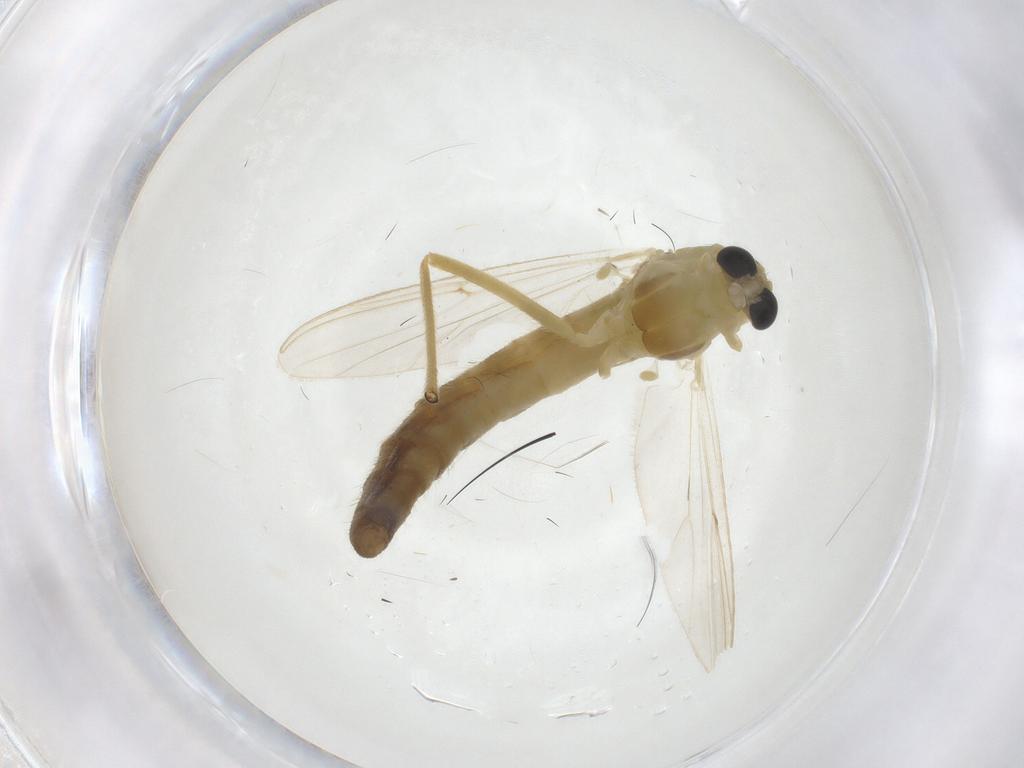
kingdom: Animalia
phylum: Arthropoda
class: Insecta
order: Diptera
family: Chironomidae
